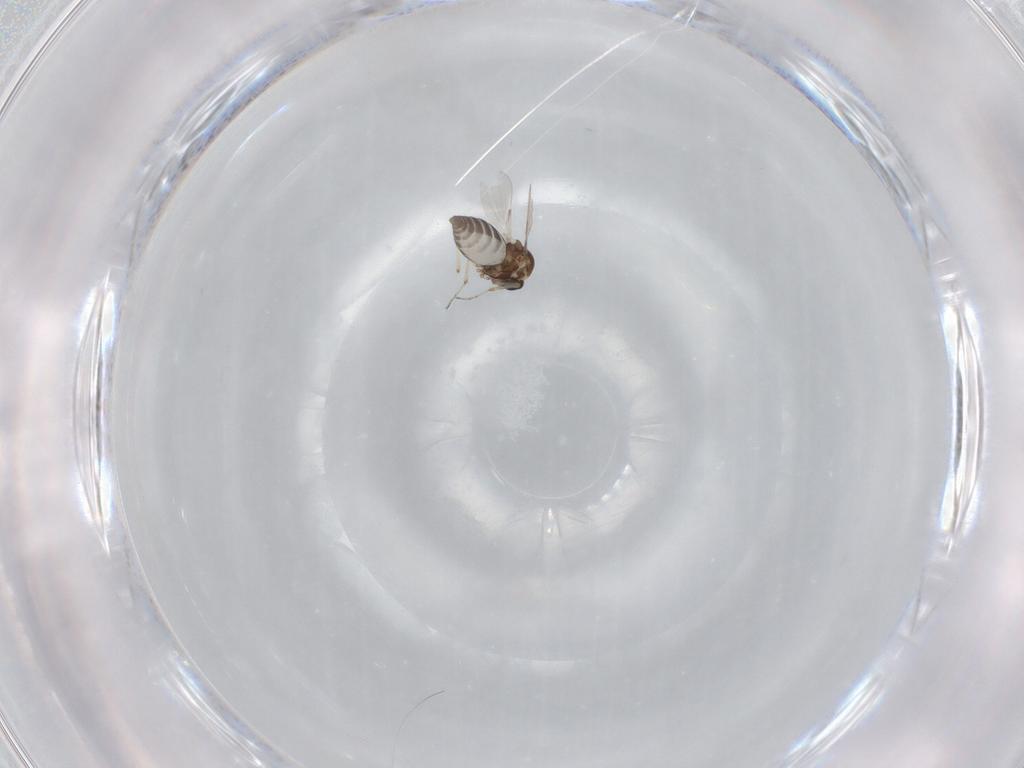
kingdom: Animalia
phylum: Arthropoda
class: Insecta
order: Diptera
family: Ceratopogonidae
